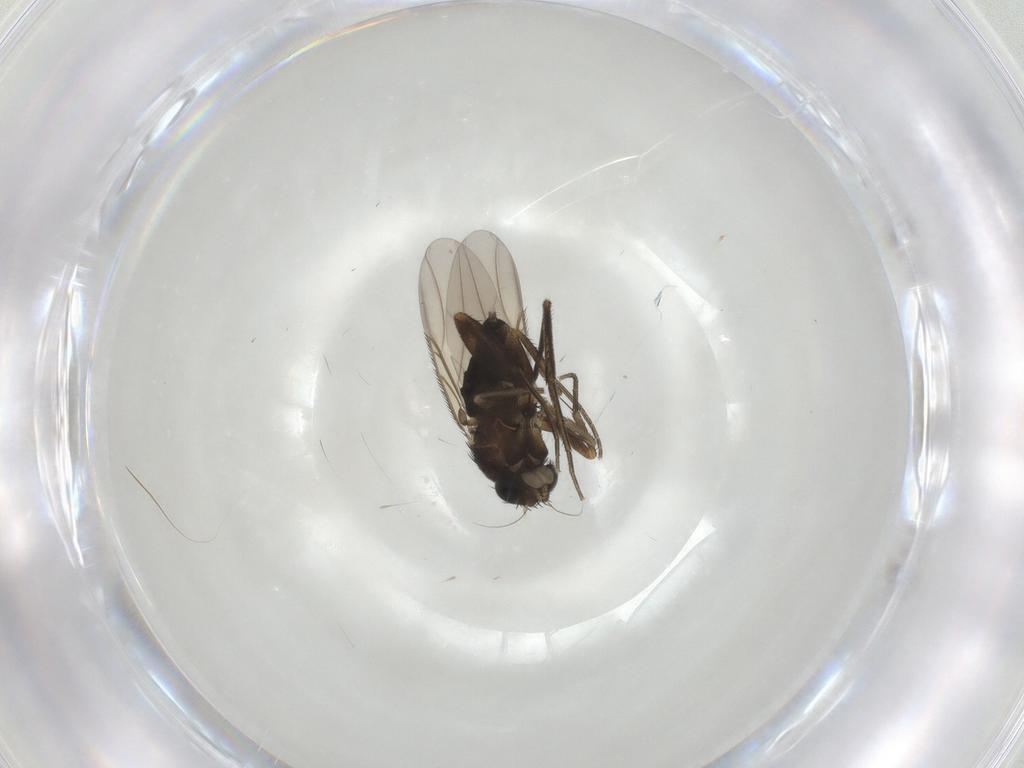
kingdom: Animalia
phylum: Arthropoda
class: Insecta
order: Diptera
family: Phoridae
